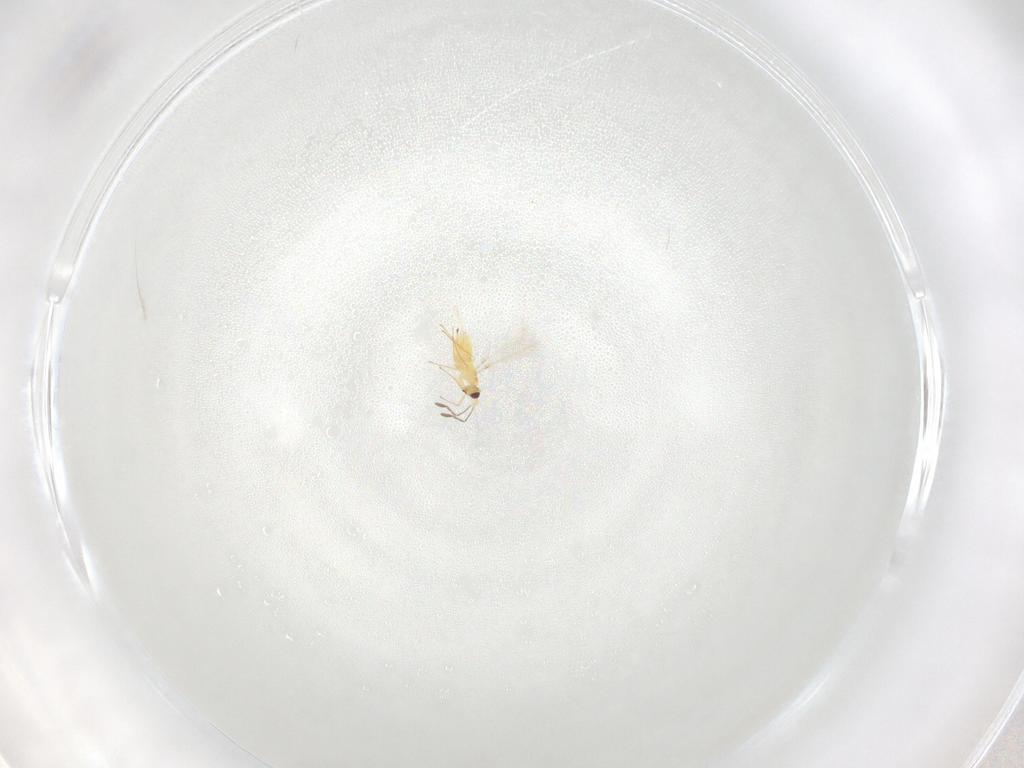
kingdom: Animalia
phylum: Arthropoda
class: Insecta
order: Hymenoptera
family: Mymaridae
